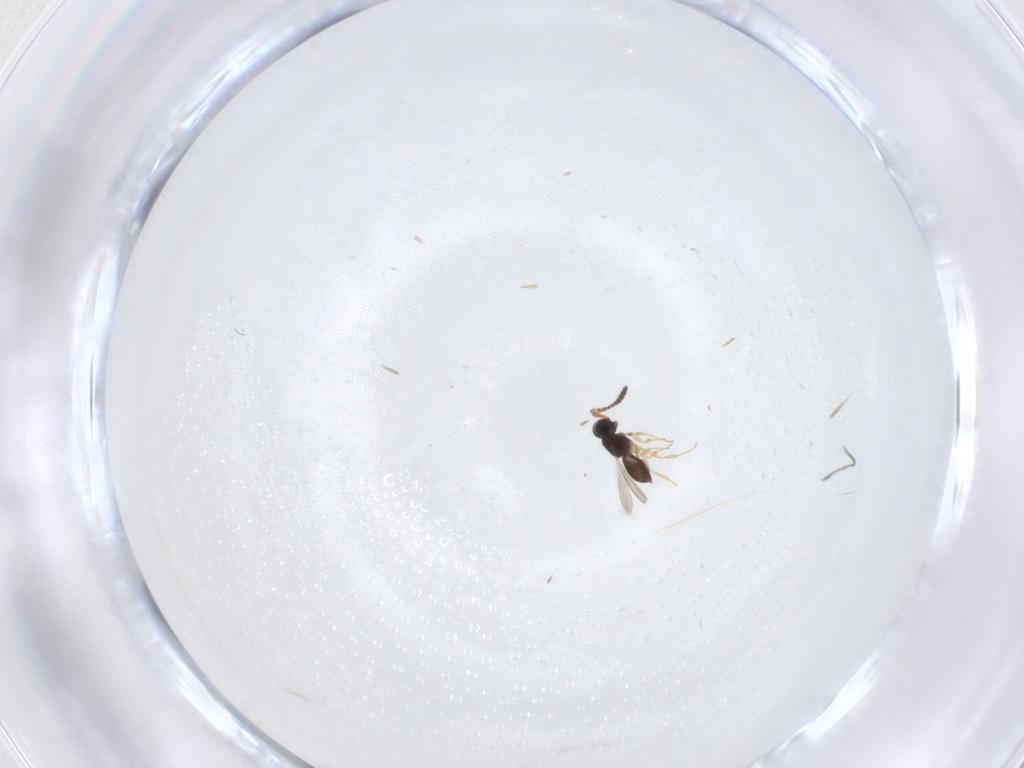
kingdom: Animalia
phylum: Arthropoda
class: Insecta
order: Hymenoptera
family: Scelionidae
